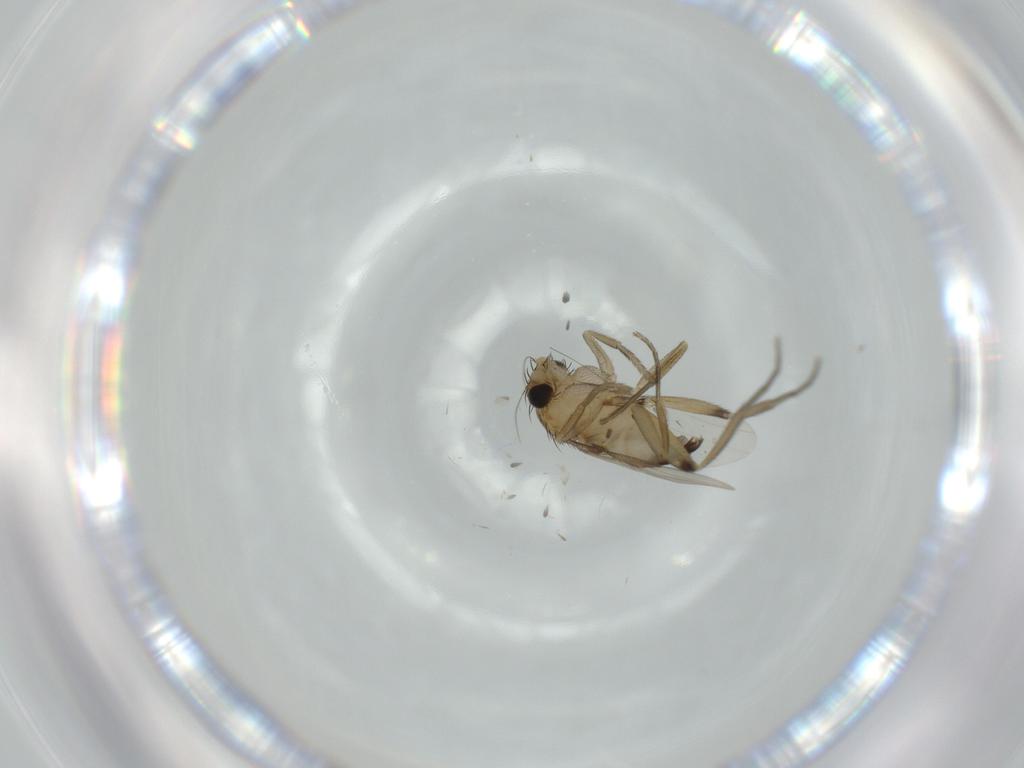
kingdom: Animalia
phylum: Arthropoda
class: Insecta
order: Diptera
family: Phoridae
